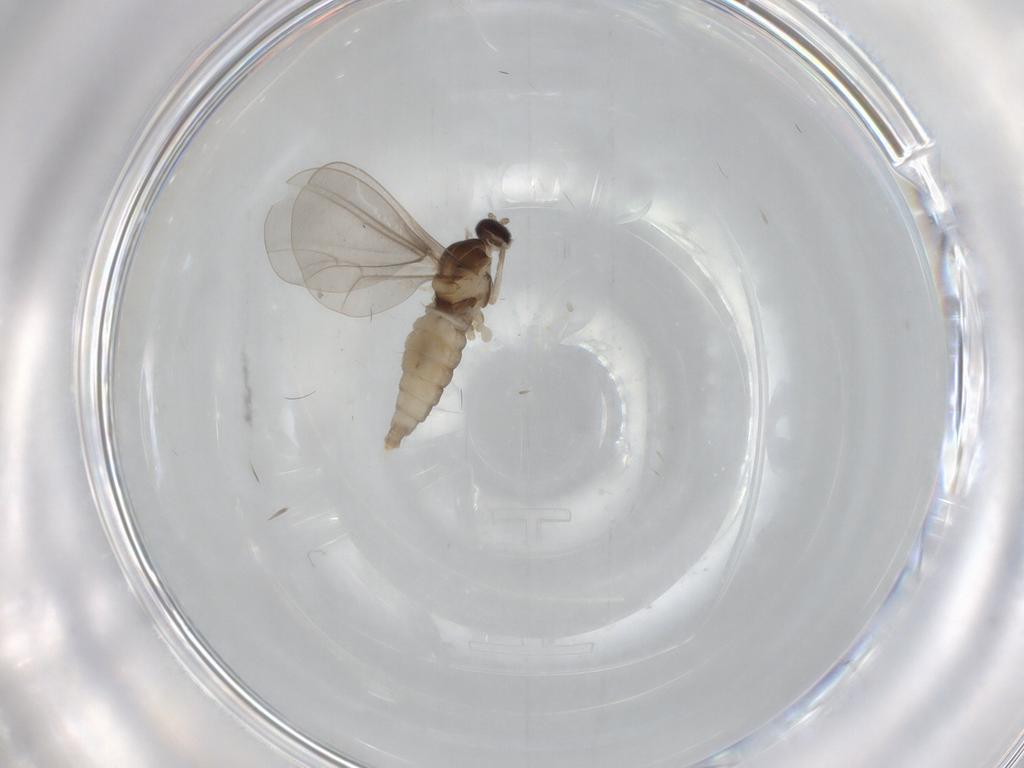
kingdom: Animalia
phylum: Arthropoda
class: Insecta
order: Diptera
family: Cecidomyiidae
